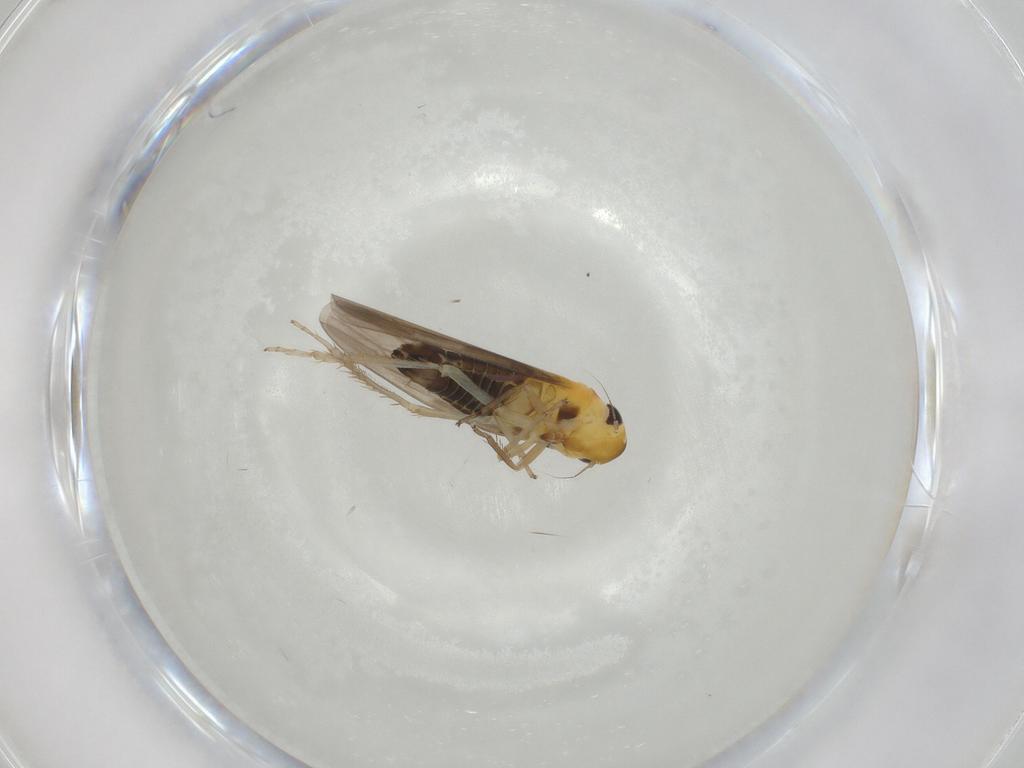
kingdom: Animalia
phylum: Arthropoda
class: Insecta
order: Hemiptera
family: Cicadellidae
